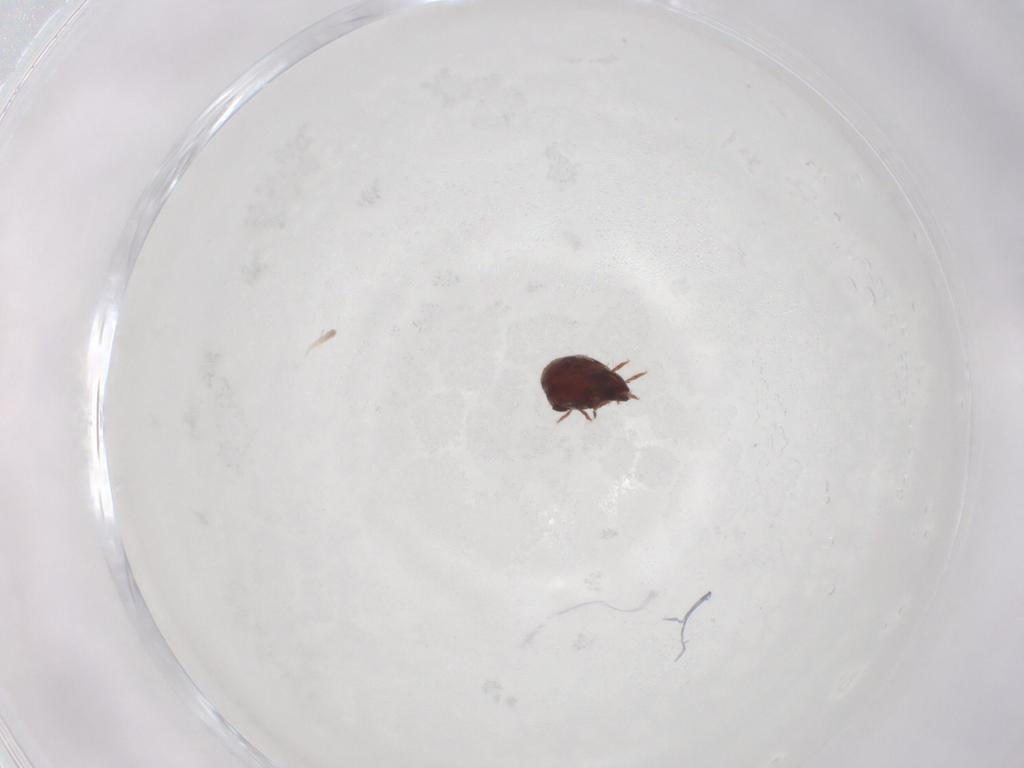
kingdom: Animalia
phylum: Arthropoda
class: Arachnida
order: Sarcoptiformes
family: Humerobatidae
